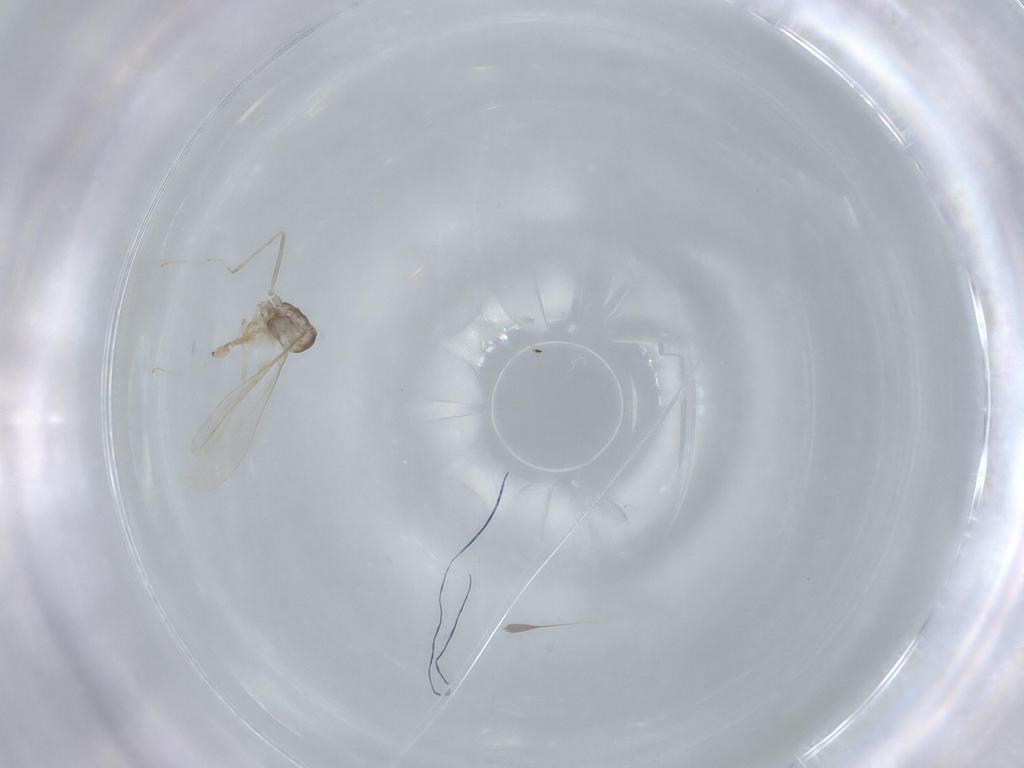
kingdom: Animalia
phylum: Arthropoda
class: Insecta
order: Diptera
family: Cecidomyiidae
